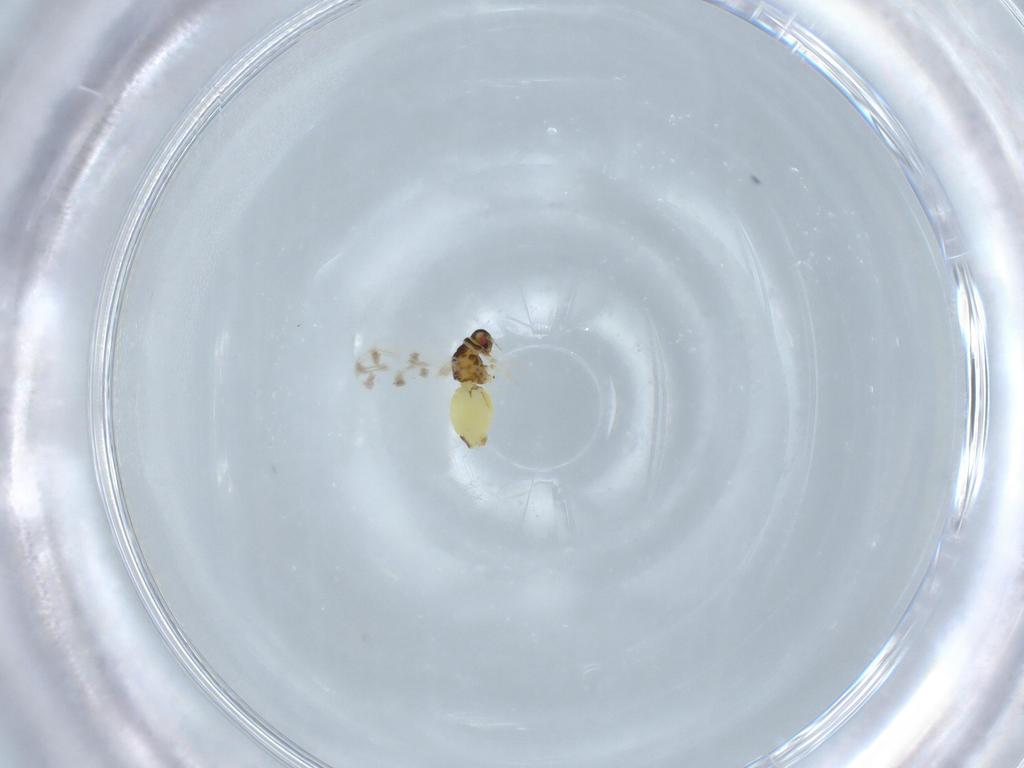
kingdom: Animalia
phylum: Arthropoda
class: Insecta
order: Hemiptera
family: Aleyrodidae
